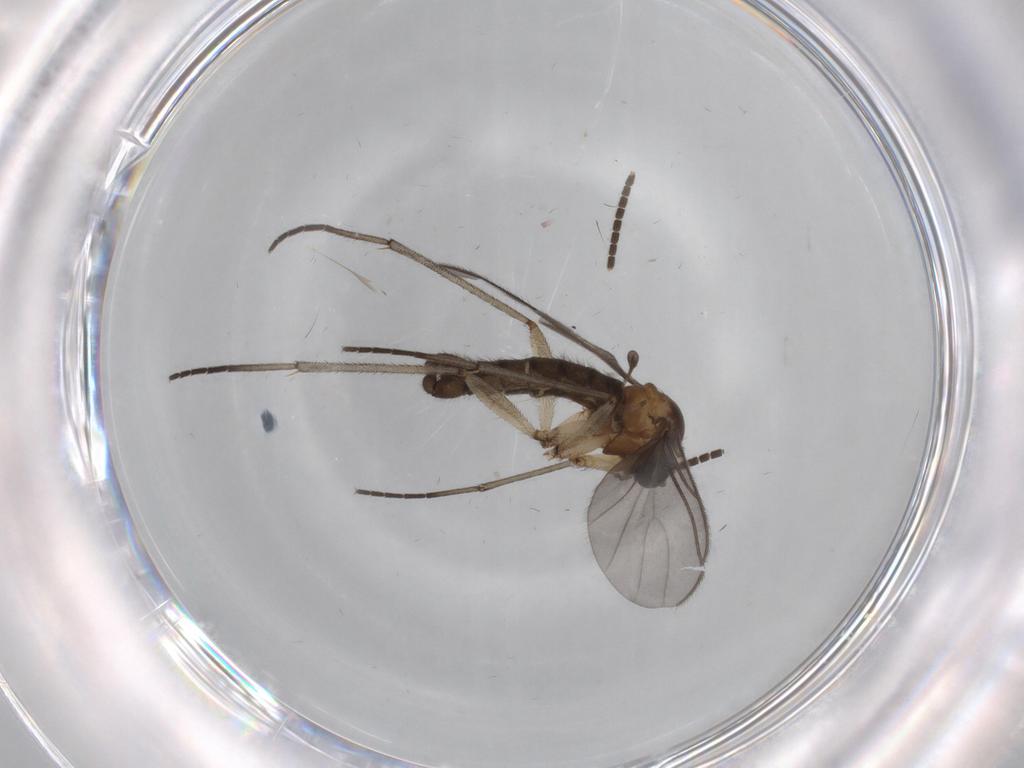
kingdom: Animalia
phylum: Arthropoda
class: Insecta
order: Diptera
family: Sciaridae
